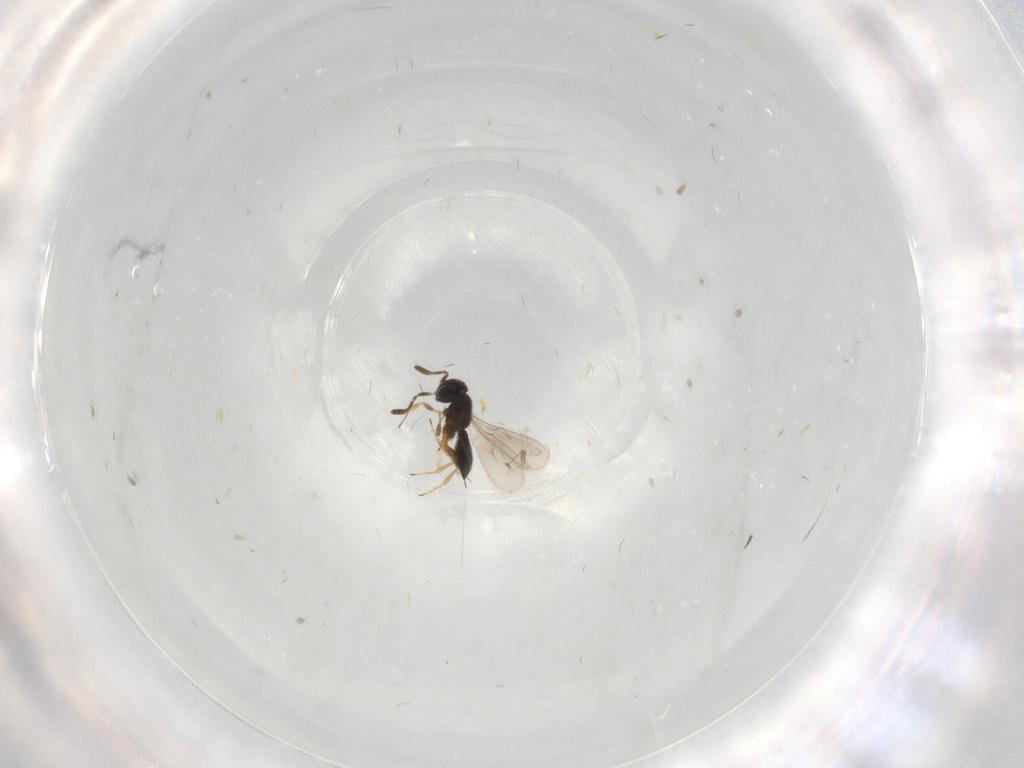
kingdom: Animalia
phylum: Arthropoda
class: Insecta
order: Hymenoptera
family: Scelionidae
